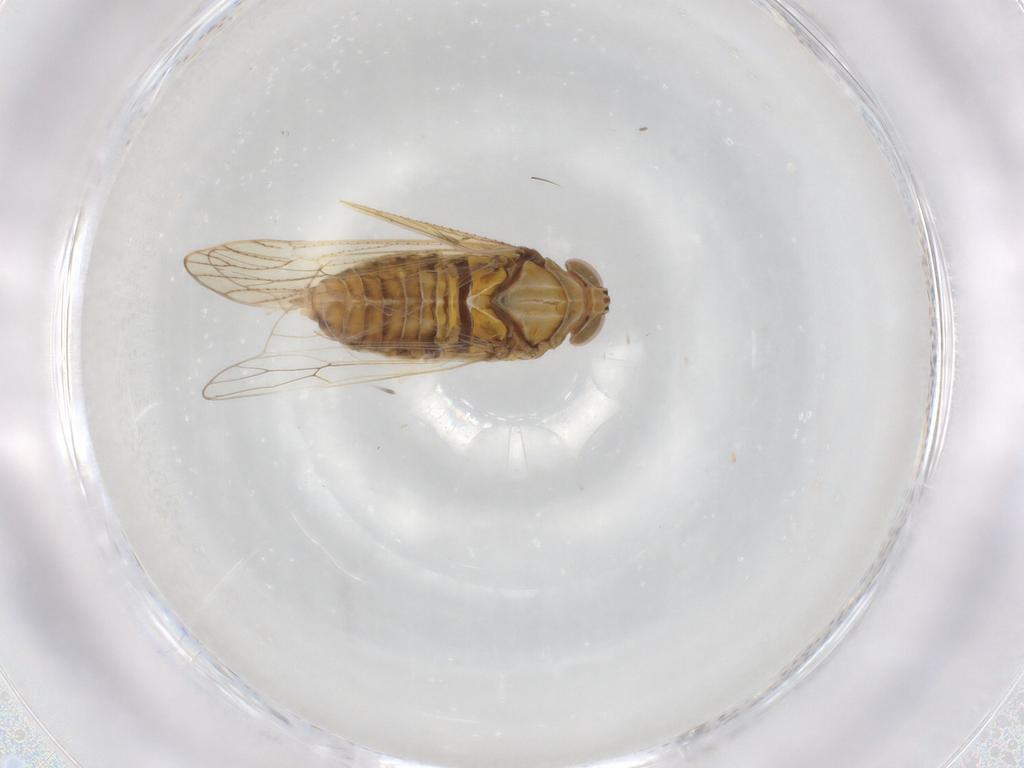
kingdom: Animalia
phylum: Arthropoda
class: Insecta
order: Hemiptera
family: Delphacidae
